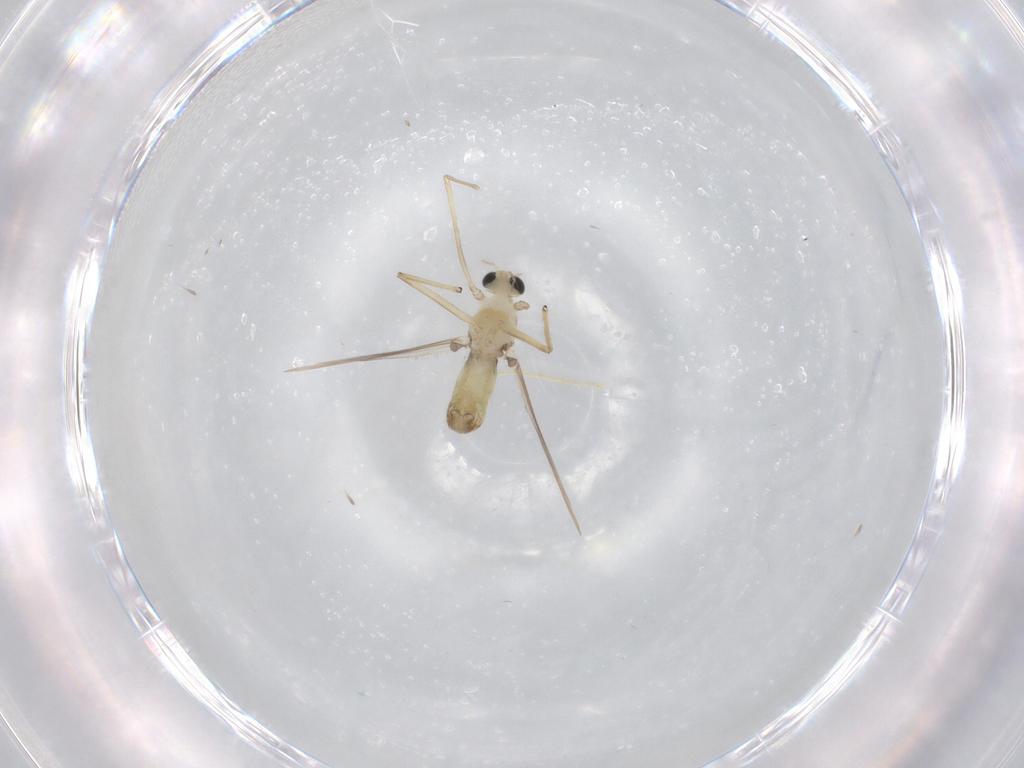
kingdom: Animalia
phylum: Arthropoda
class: Insecta
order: Diptera
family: Chironomidae
